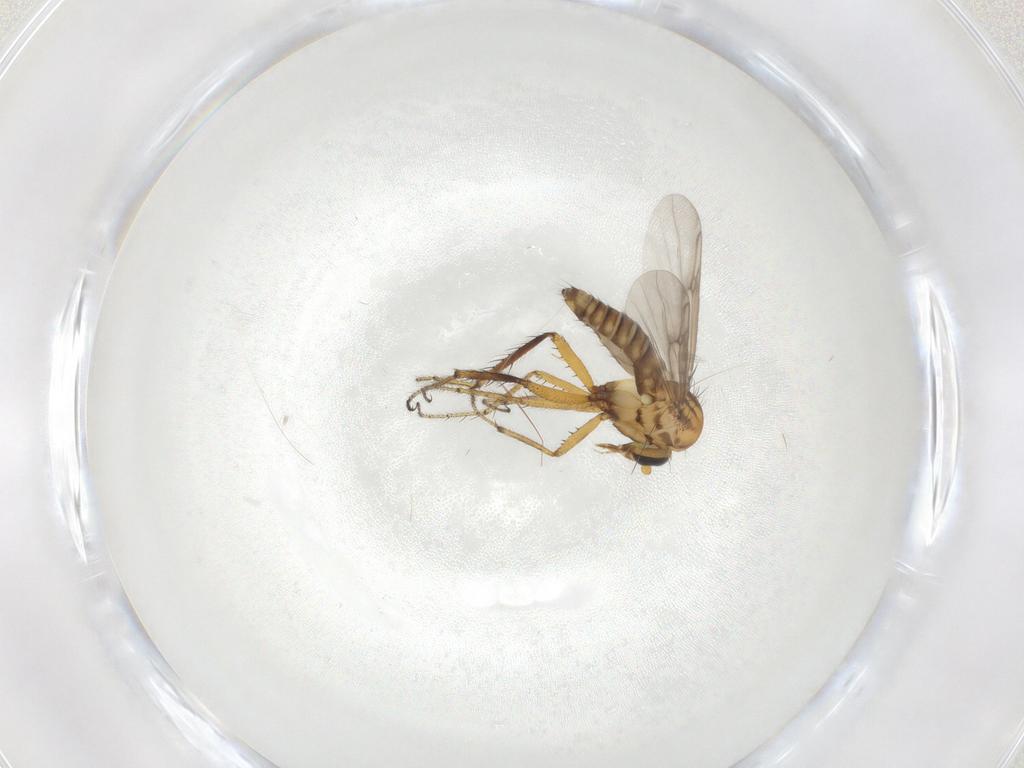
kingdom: Animalia
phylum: Arthropoda
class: Insecta
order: Diptera
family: Ceratopogonidae
